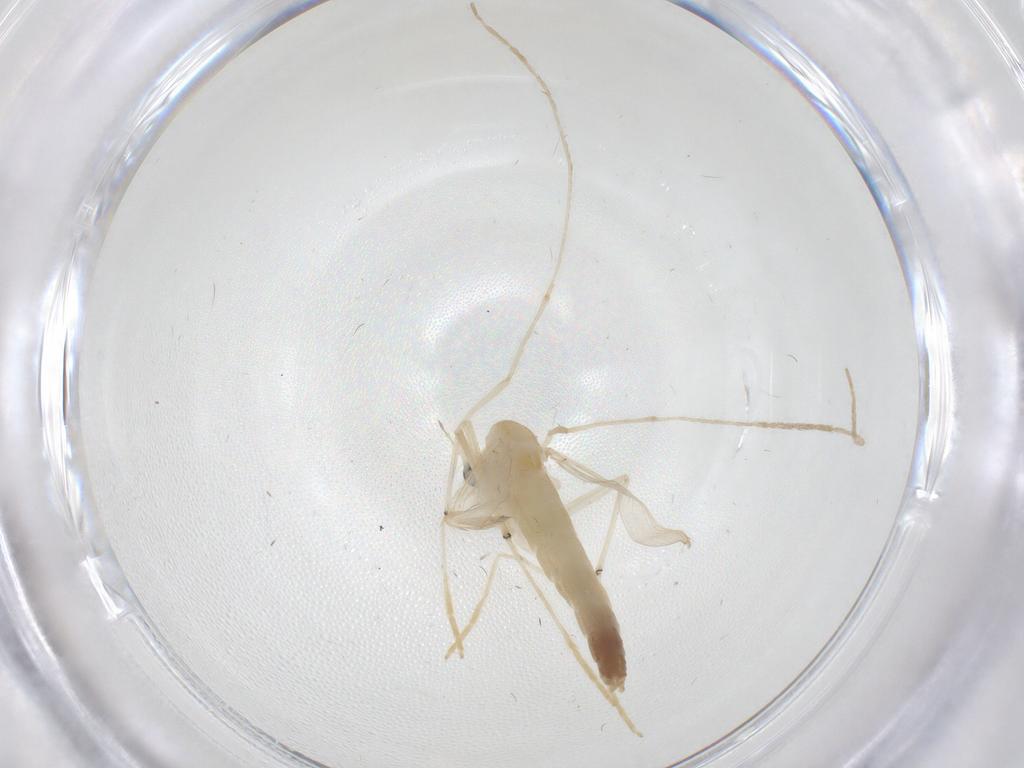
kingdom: Animalia
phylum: Arthropoda
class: Insecta
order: Diptera
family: Chironomidae
